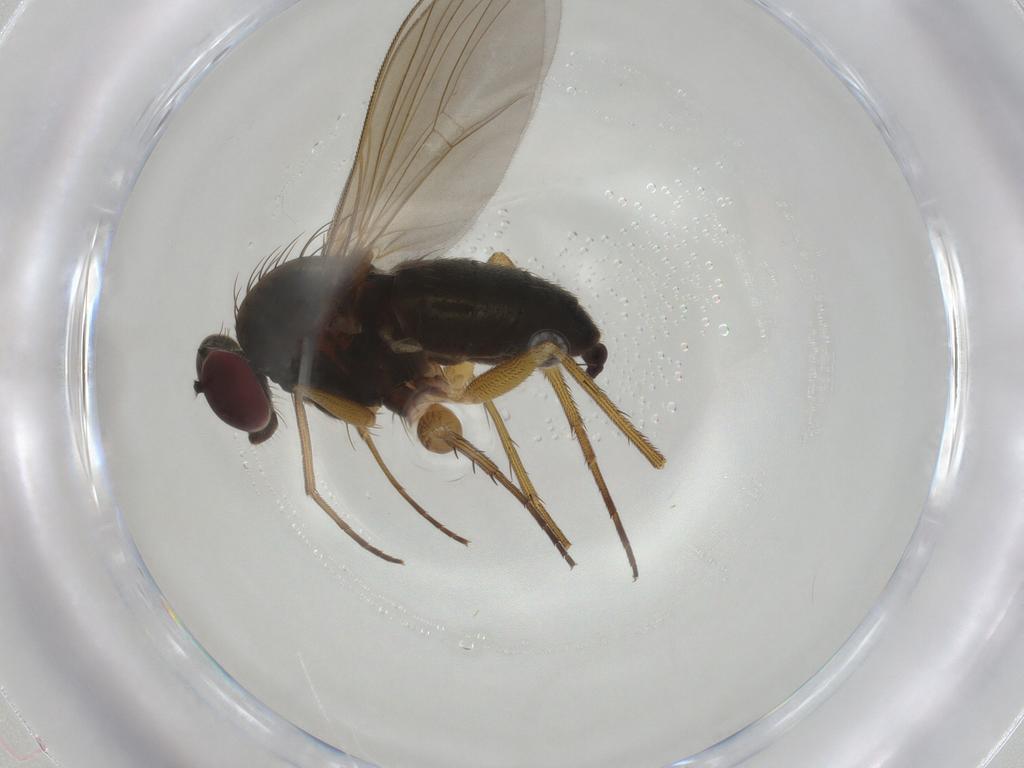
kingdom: Animalia
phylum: Arthropoda
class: Insecta
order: Diptera
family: Dolichopodidae
